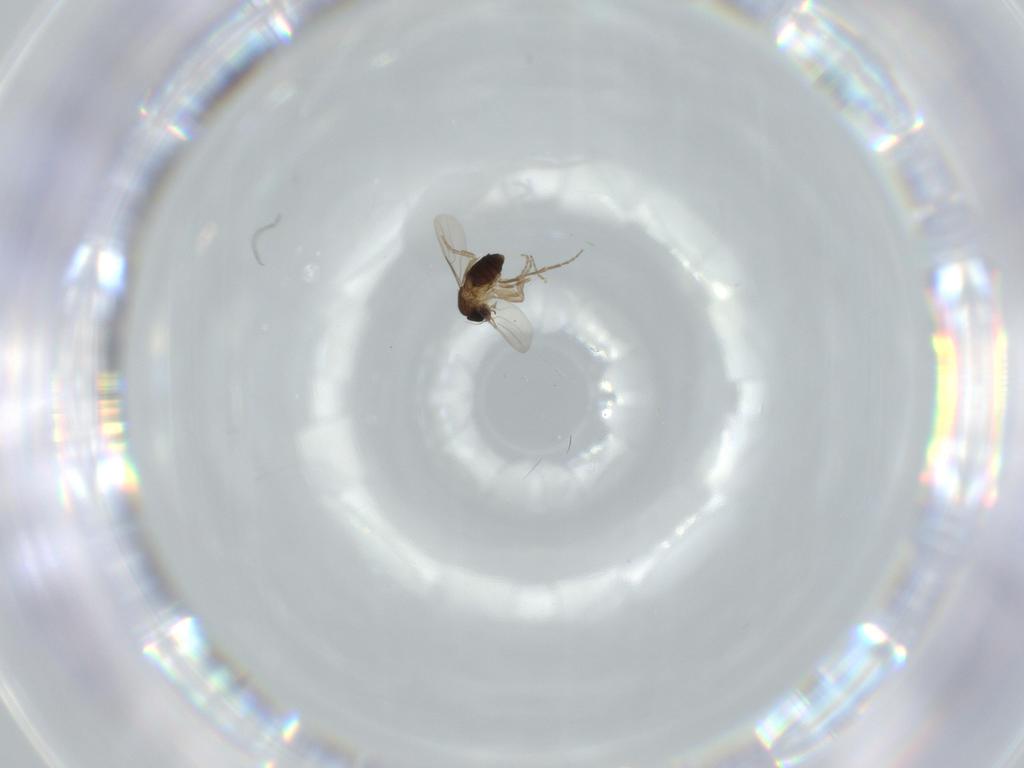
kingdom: Animalia
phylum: Arthropoda
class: Insecta
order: Diptera
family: Phoridae
